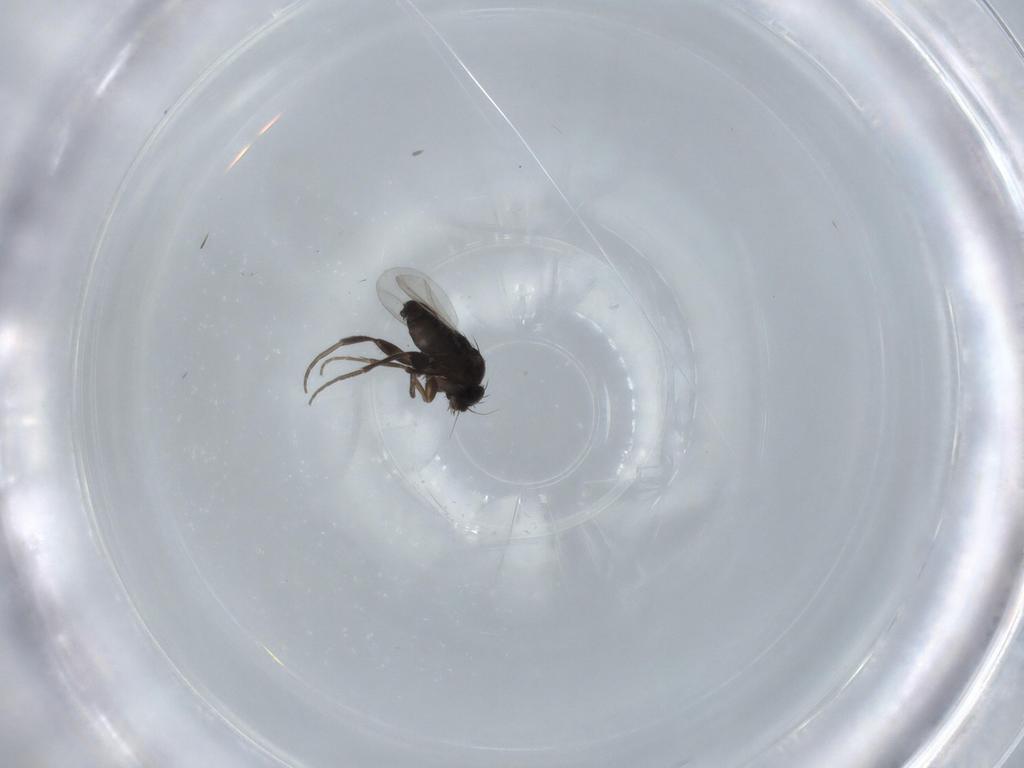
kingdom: Animalia
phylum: Arthropoda
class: Insecta
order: Diptera
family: Phoridae
